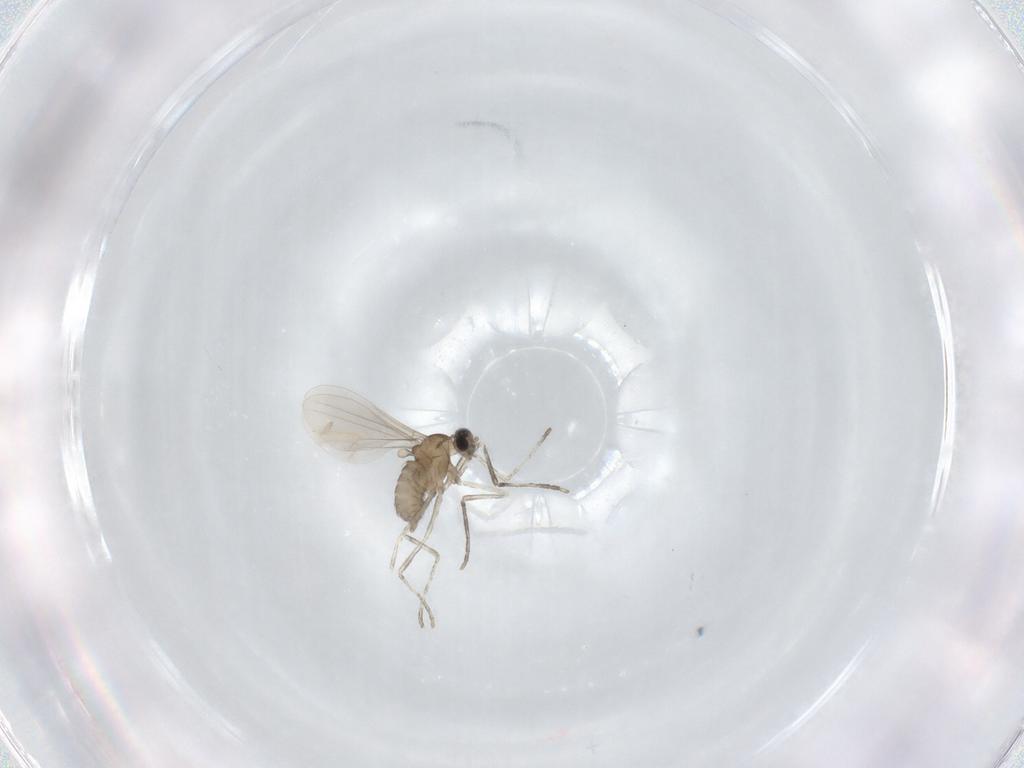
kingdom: Animalia
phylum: Arthropoda
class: Insecta
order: Diptera
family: Cecidomyiidae
